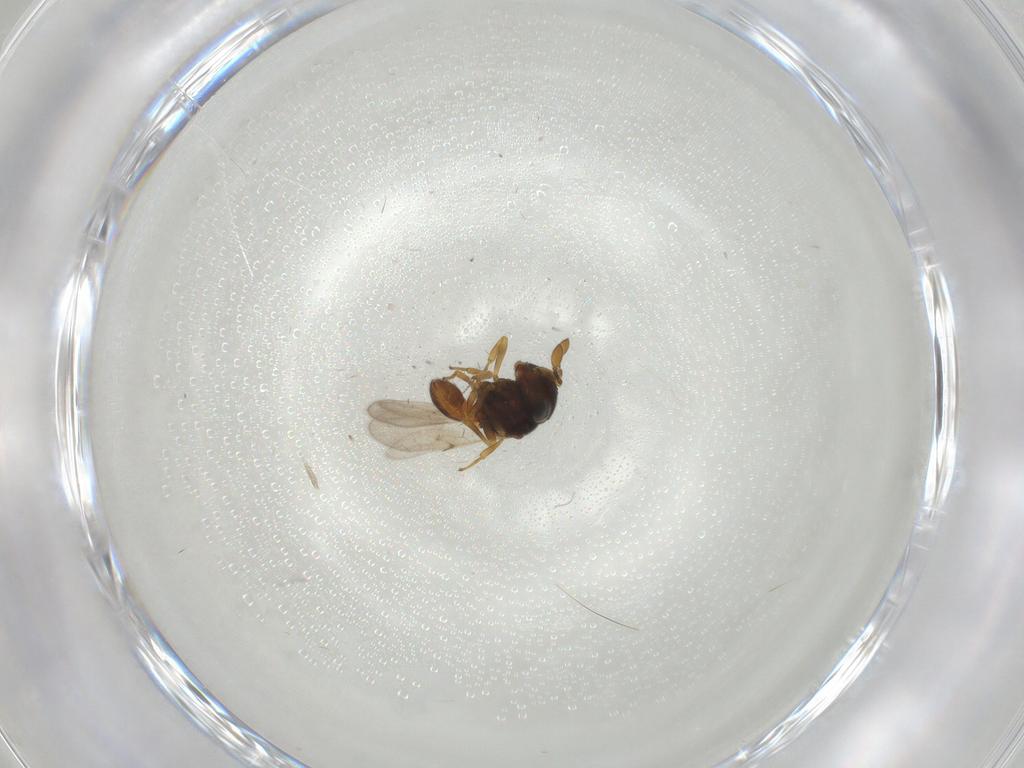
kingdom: Animalia
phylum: Arthropoda
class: Insecta
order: Hymenoptera
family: Scelionidae
